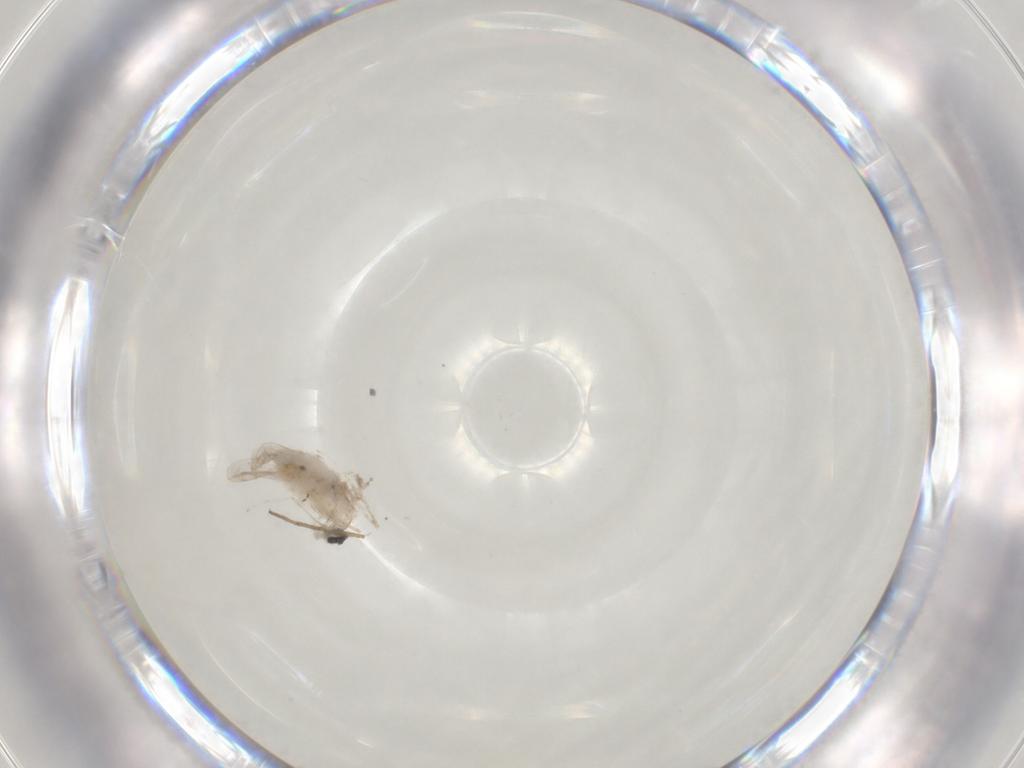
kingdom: Animalia
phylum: Arthropoda
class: Insecta
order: Diptera
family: Chironomidae
